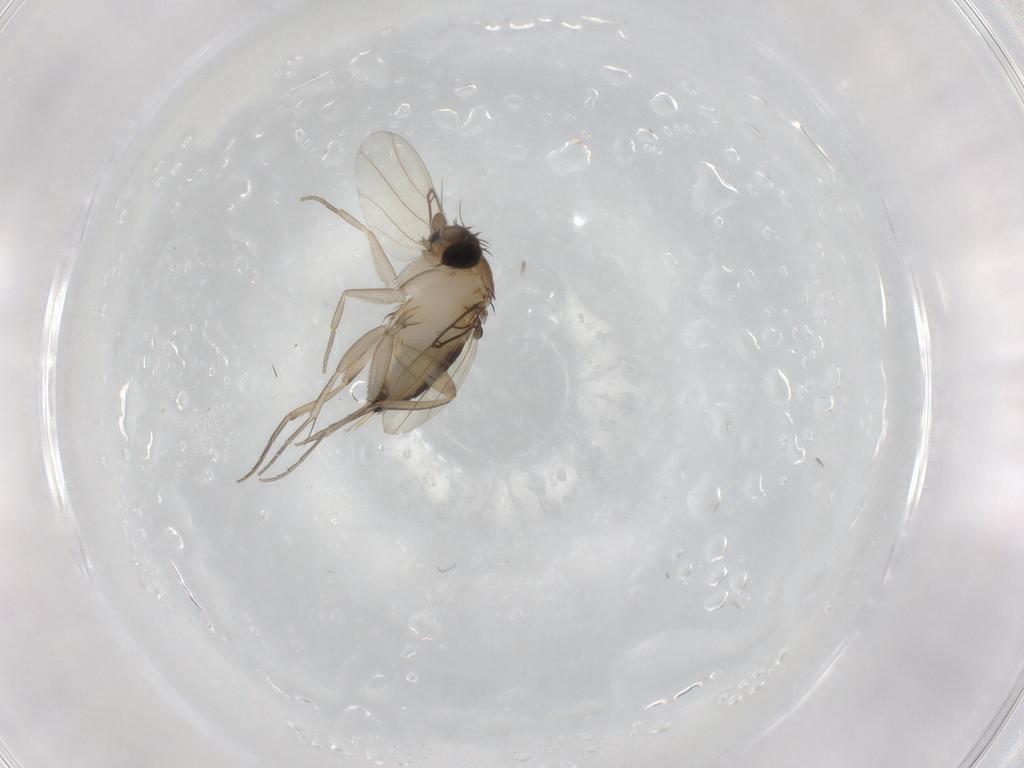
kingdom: Animalia
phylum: Arthropoda
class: Insecta
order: Diptera
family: Phoridae
